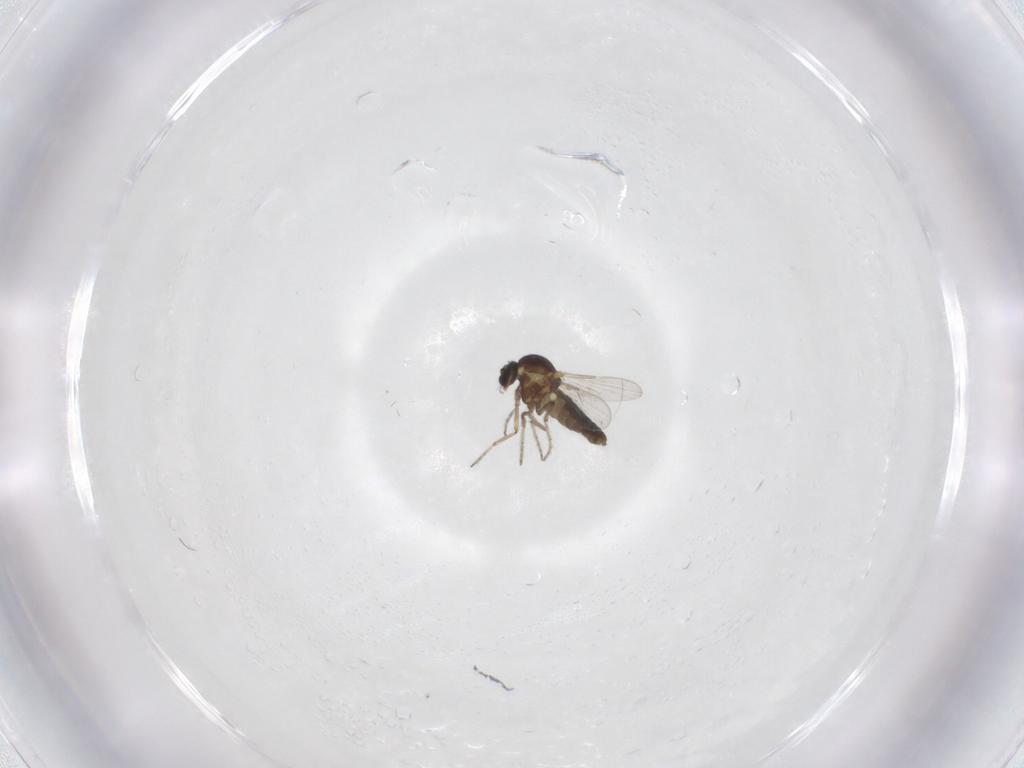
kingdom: Animalia
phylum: Arthropoda
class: Insecta
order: Diptera
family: Ceratopogonidae
